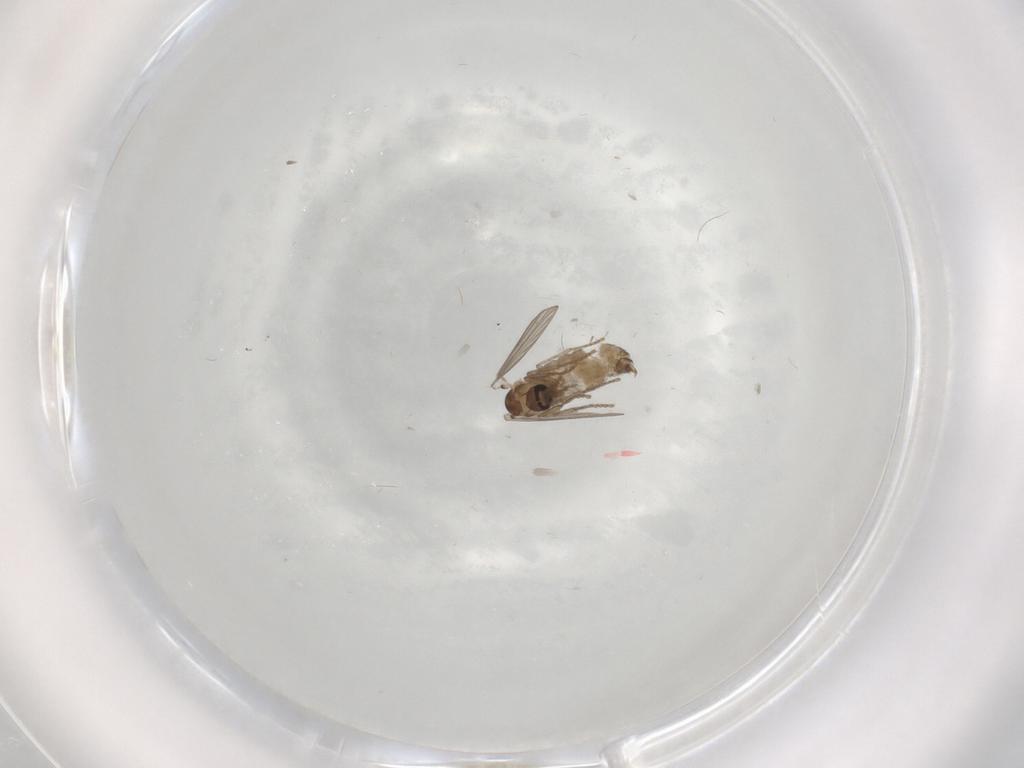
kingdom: Animalia
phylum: Arthropoda
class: Insecta
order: Diptera
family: Psychodidae
